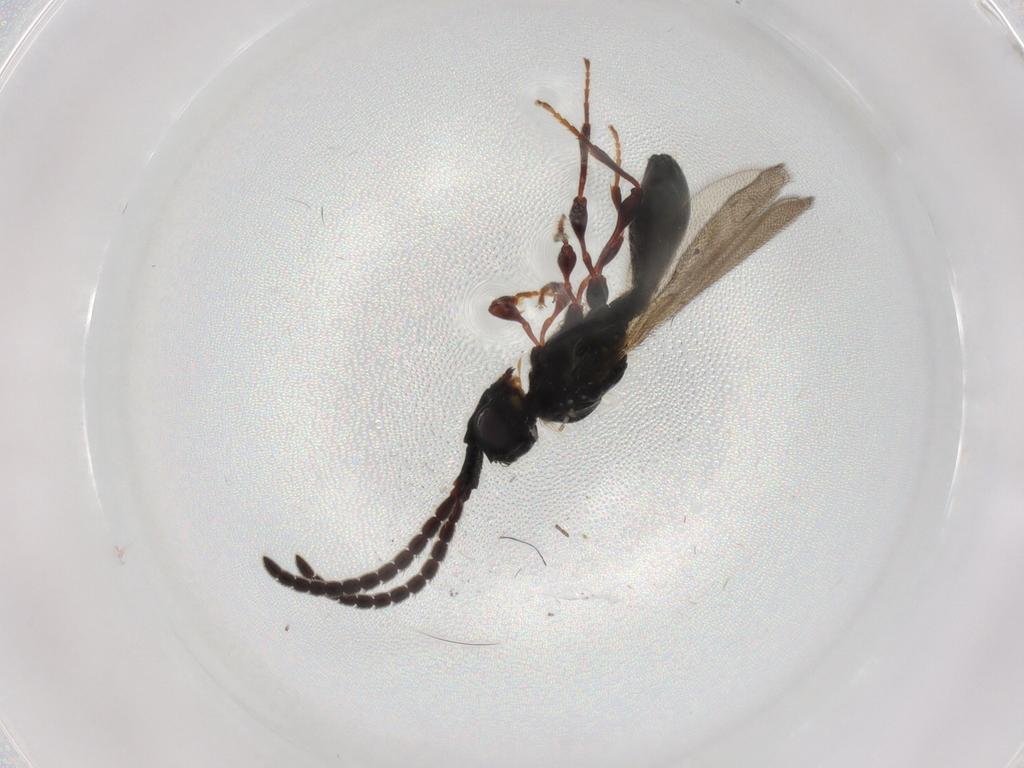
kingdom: Animalia
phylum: Arthropoda
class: Insecta
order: Hymenoptera
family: Diapriidae
